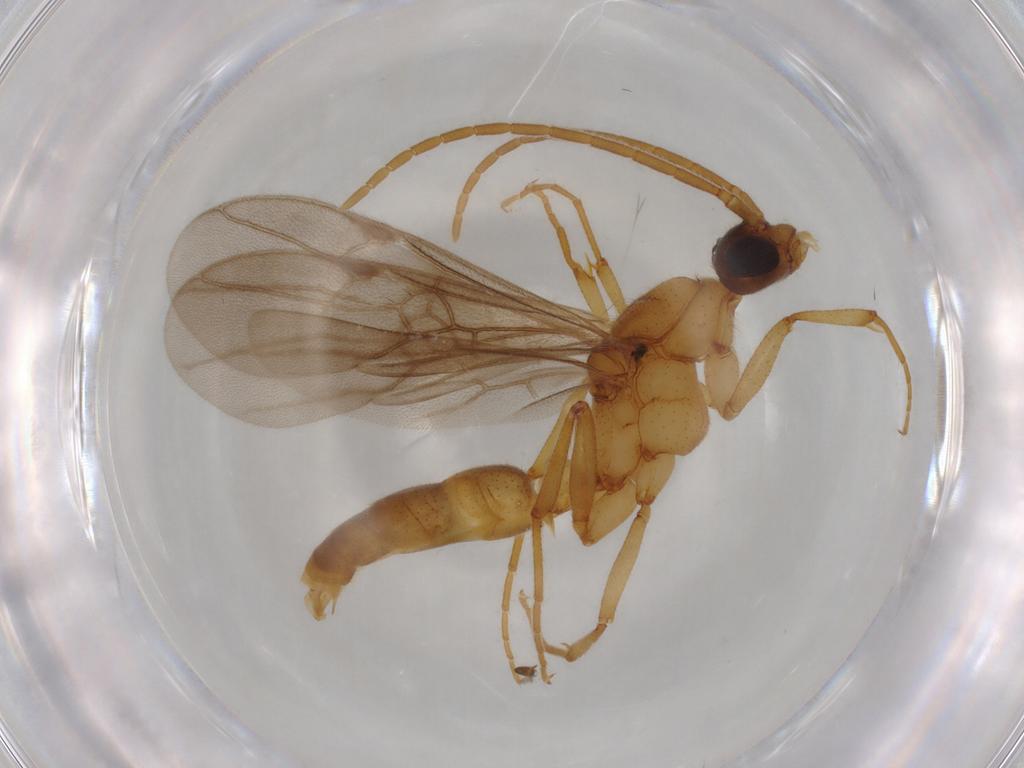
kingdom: Animalia
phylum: Arthropoda
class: Insecta
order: Hymenoptera
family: Formicidae
